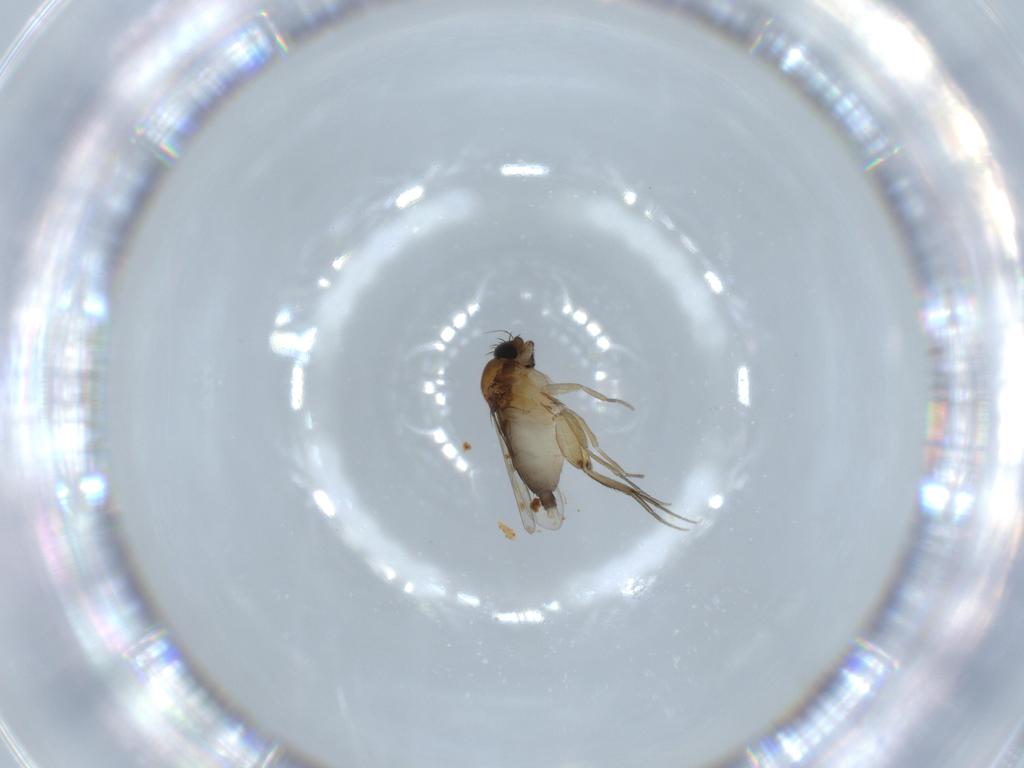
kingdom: Animalia
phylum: Arthropoda
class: Insecta
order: Diptera
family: Phoridae
